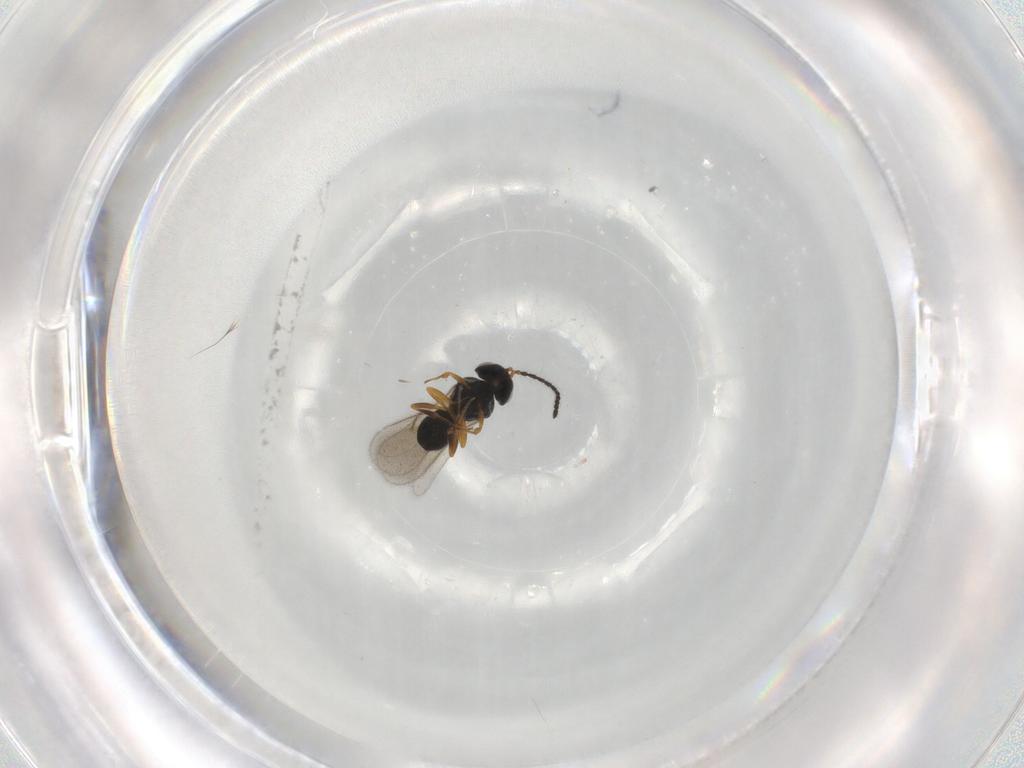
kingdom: Animalia
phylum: Arthropoda
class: Insecta
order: Hymenoptera
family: Scelionidae
